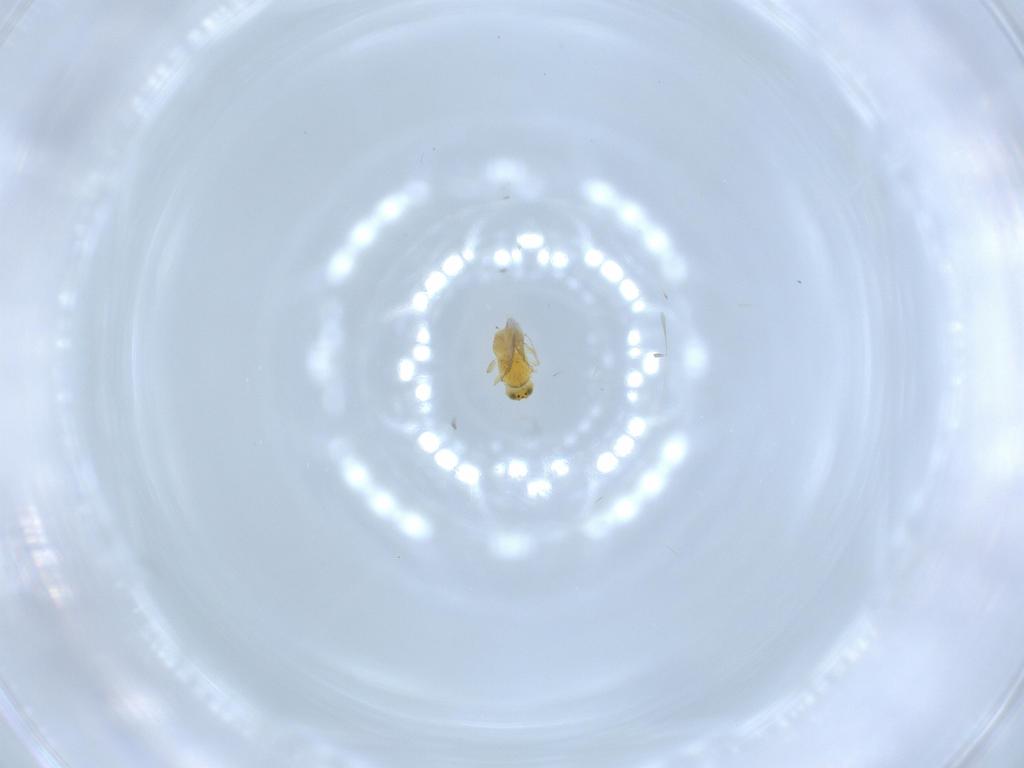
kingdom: Animalia
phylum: Arthropoda
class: Insecta
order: Hymenoptera
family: Aphelinidae
